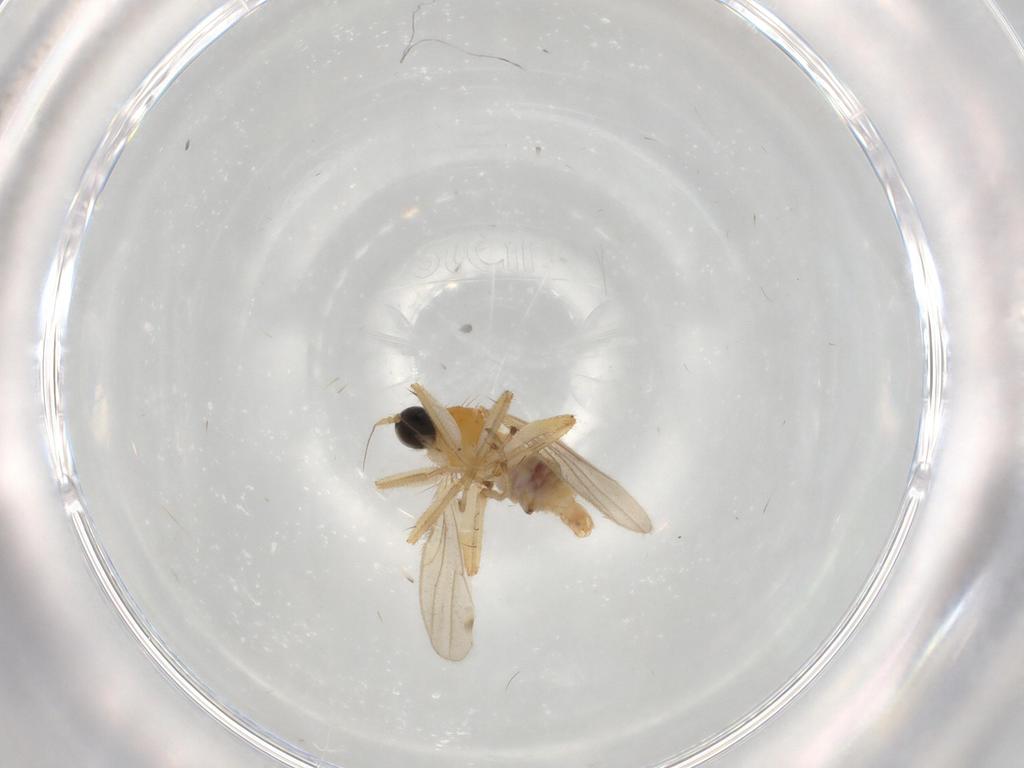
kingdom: Animalia
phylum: Arthropoda
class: Insecta
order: Diptera
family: Hybotidae
